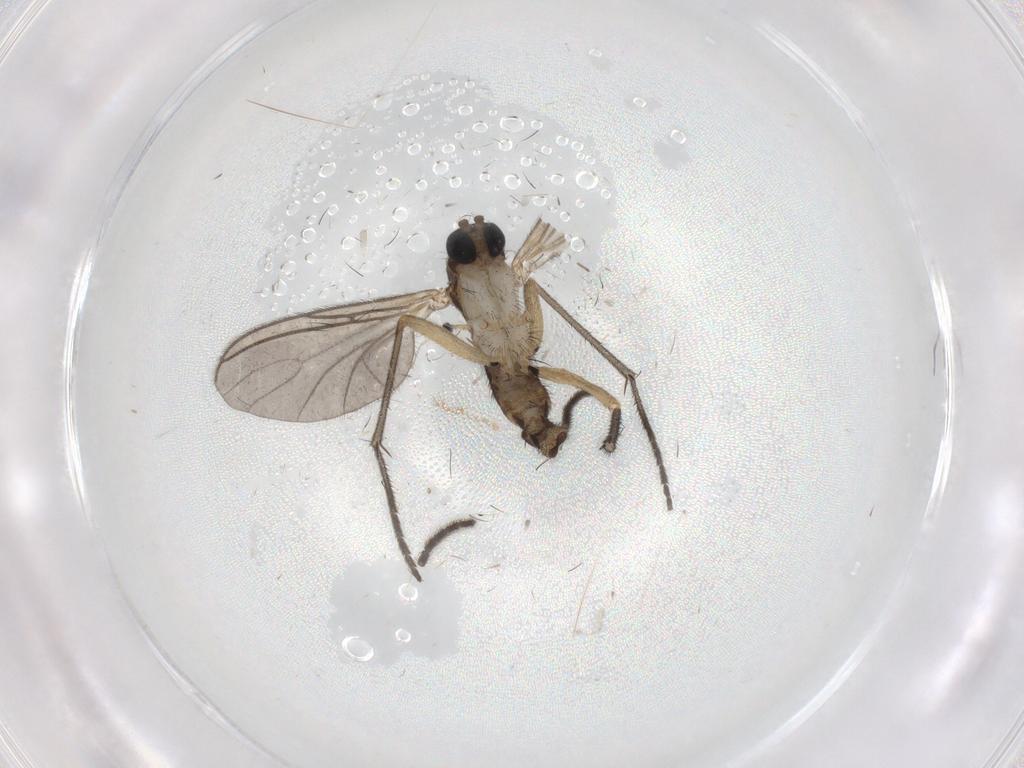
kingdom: Animalia
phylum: Arthropoda
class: Insecta
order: Diptera
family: Sciaridae
